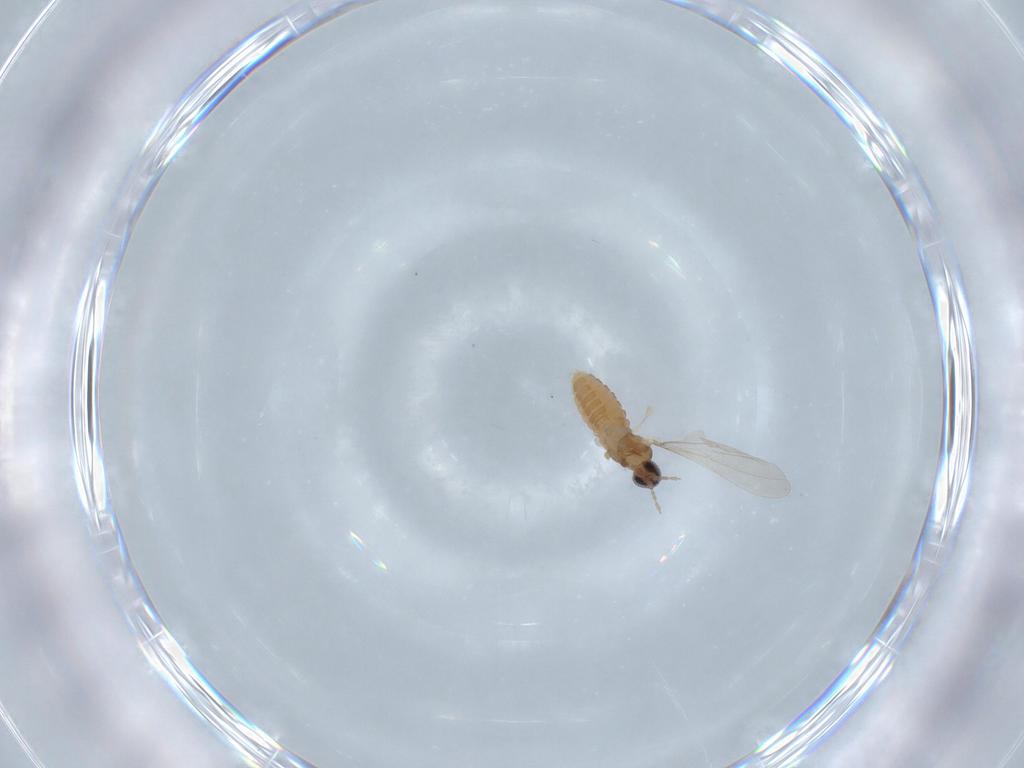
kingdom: Animalia
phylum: Arthropoda
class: Insecta
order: Diptera
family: Cecidomyiidae
